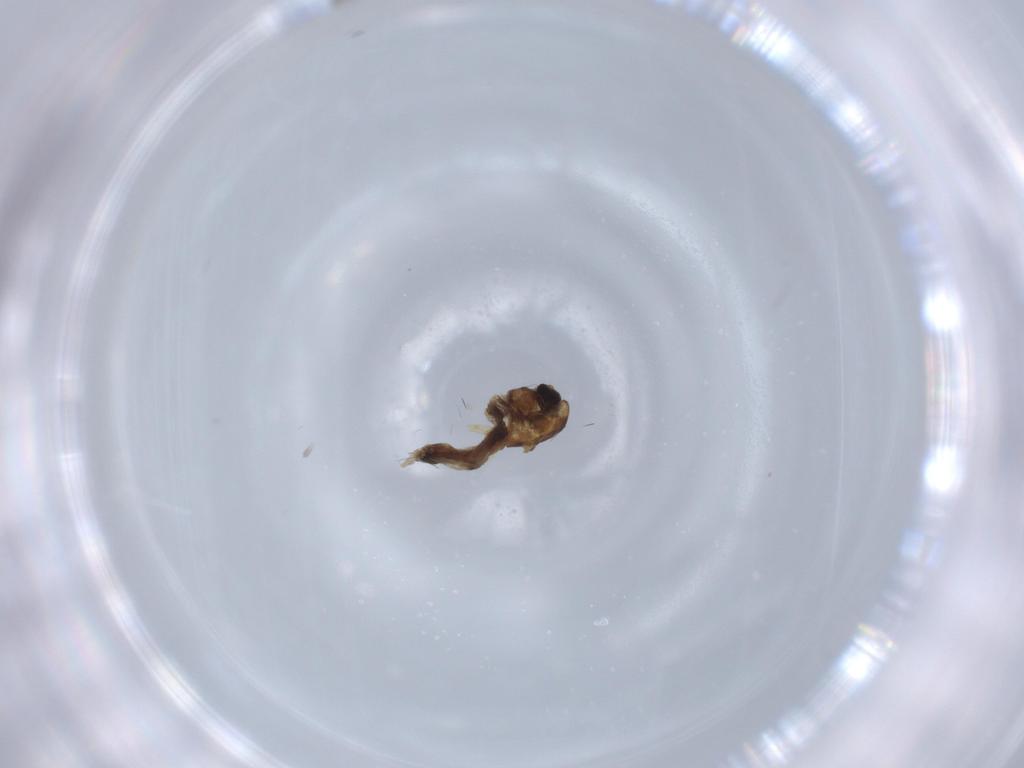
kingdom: Animalia
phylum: Arthropoda
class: Insecta
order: Diptera
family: Cecidomyiidae
